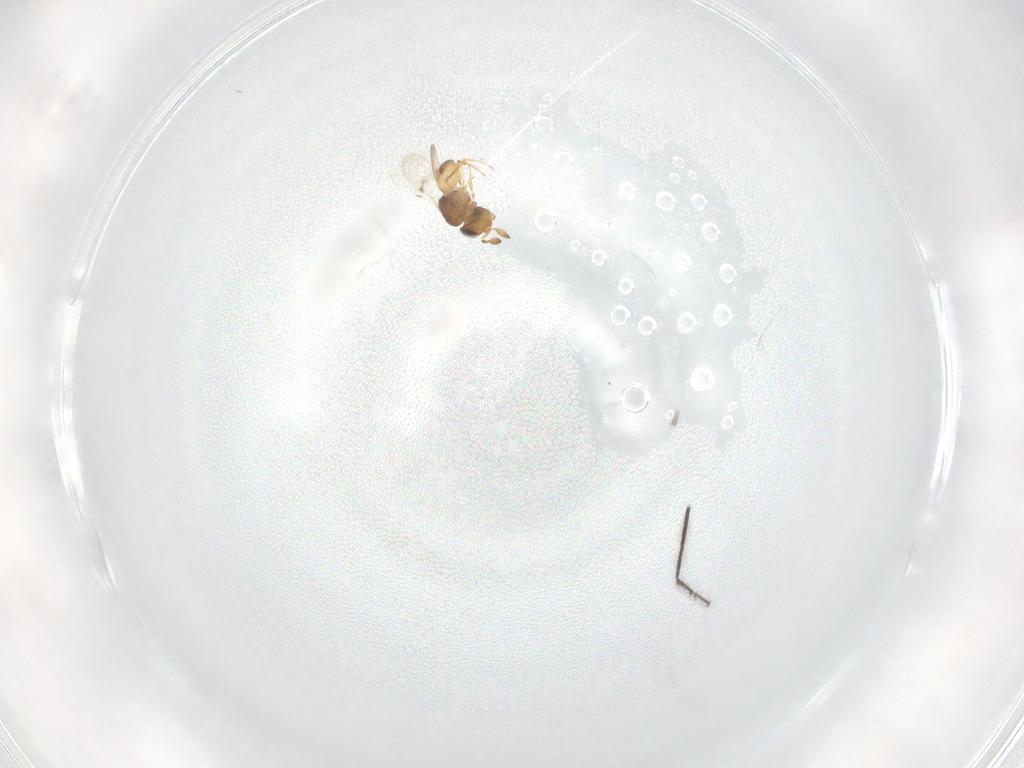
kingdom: Animalia
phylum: Arthropoda
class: Insecta
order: Hymenoptera
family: Scelionidae
